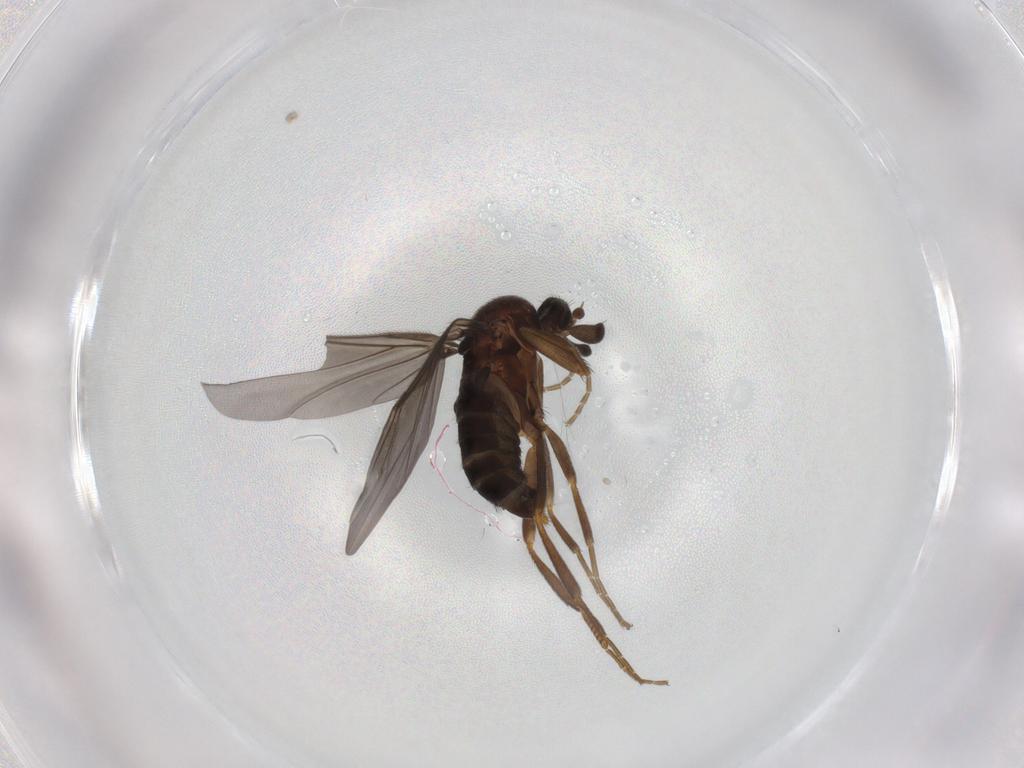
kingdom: Animalia
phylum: Arthropoda
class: Insecta
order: Diptera
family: Phoridae
